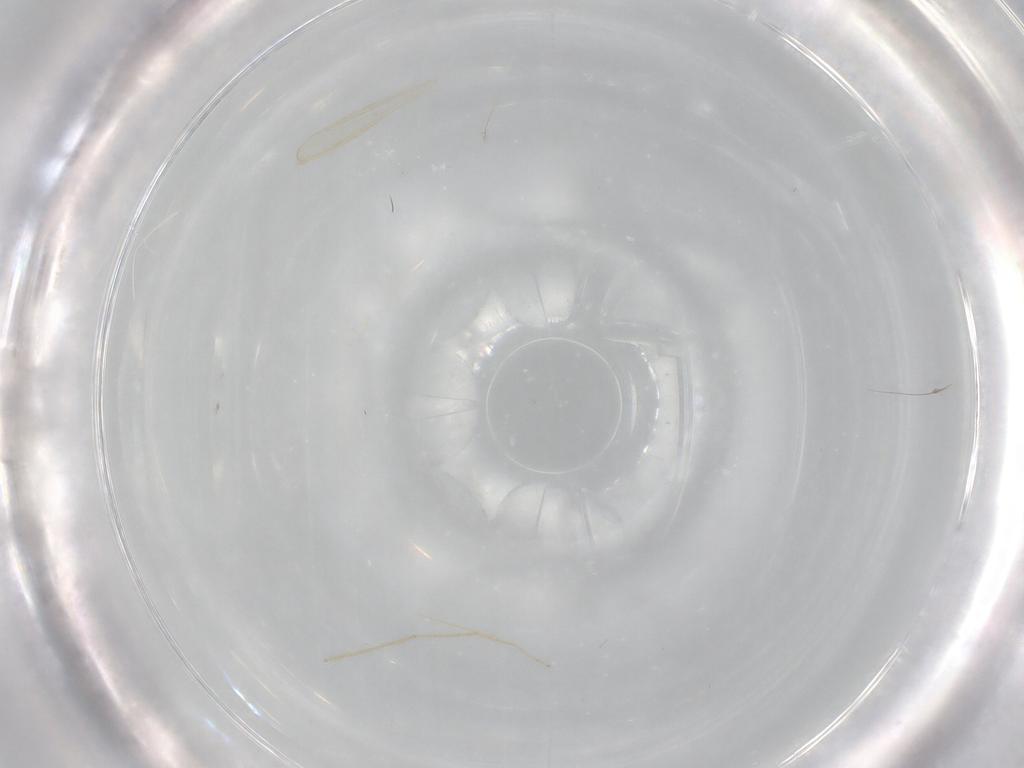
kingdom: Animalia
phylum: Arthropoda
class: Insecta
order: Diptera
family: Chironomidae
